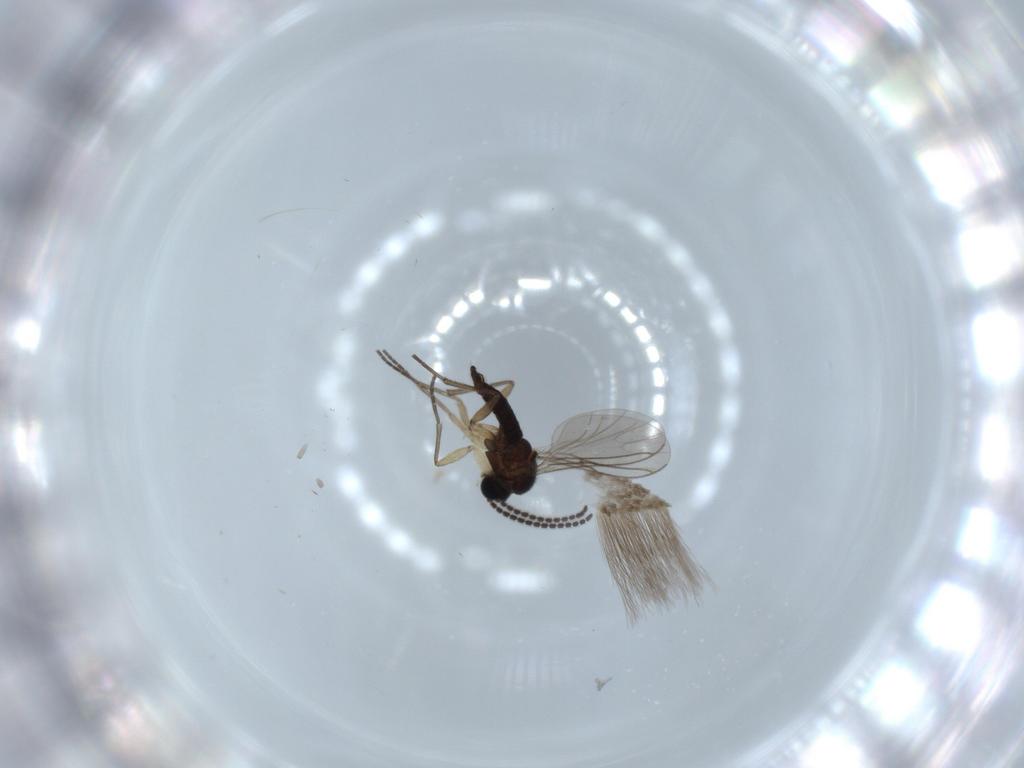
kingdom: Animalia
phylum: Arthropoda
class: Insecta
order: Diptera
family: Sciaridae
